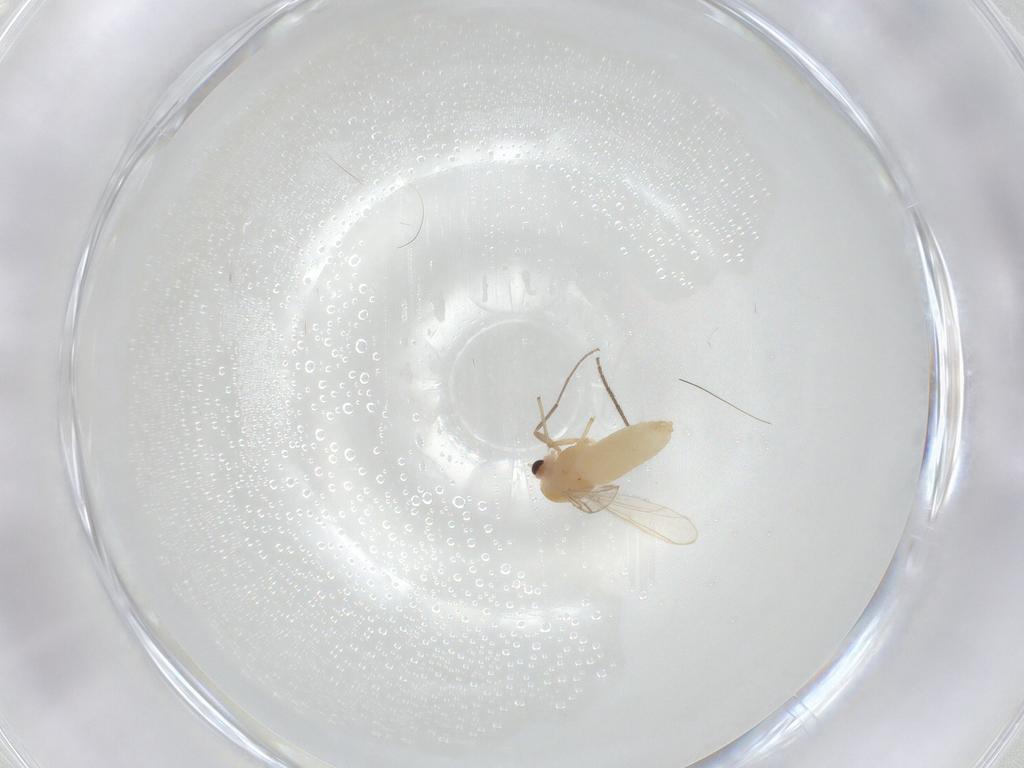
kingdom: Animalia
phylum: Arthropoda
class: Insecta
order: Diptera
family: Chironomidae
